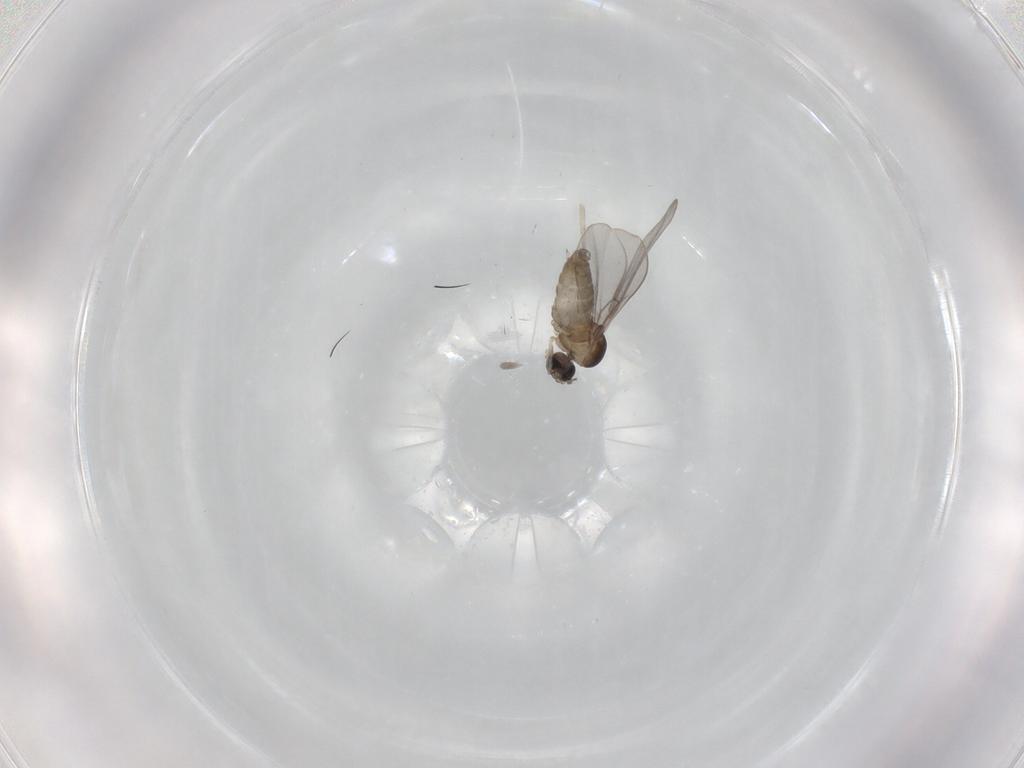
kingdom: Animalia
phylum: Arthropoda
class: Insecta
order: Diptera
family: Cecidomyiidae
